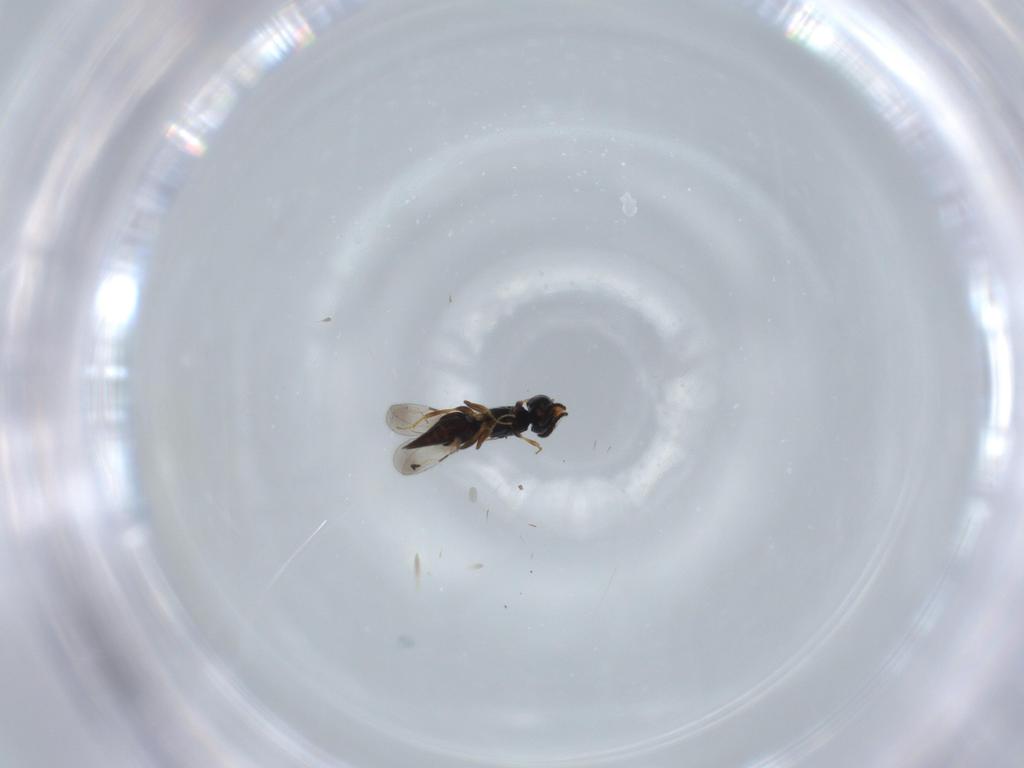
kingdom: Animalia
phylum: Arthropoda
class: Insecta
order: Hymenoptera
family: Ceraphronidae
